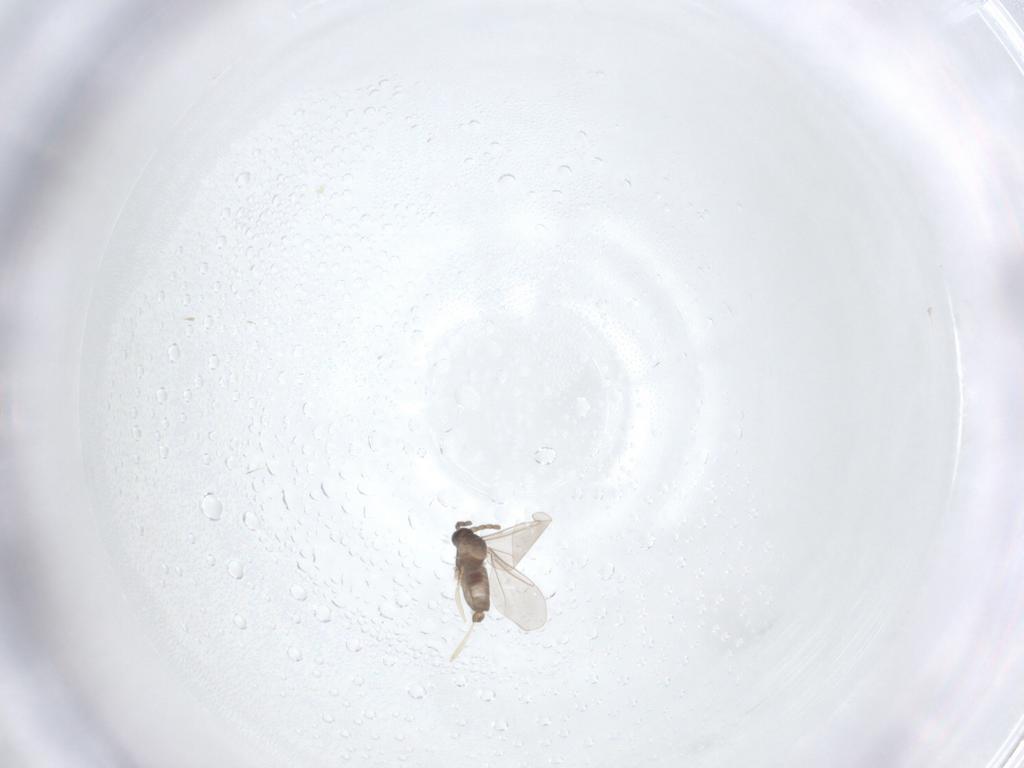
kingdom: Animalia
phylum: Arthropoda
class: Insecta
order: Diptera
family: Cecidomyiidae
